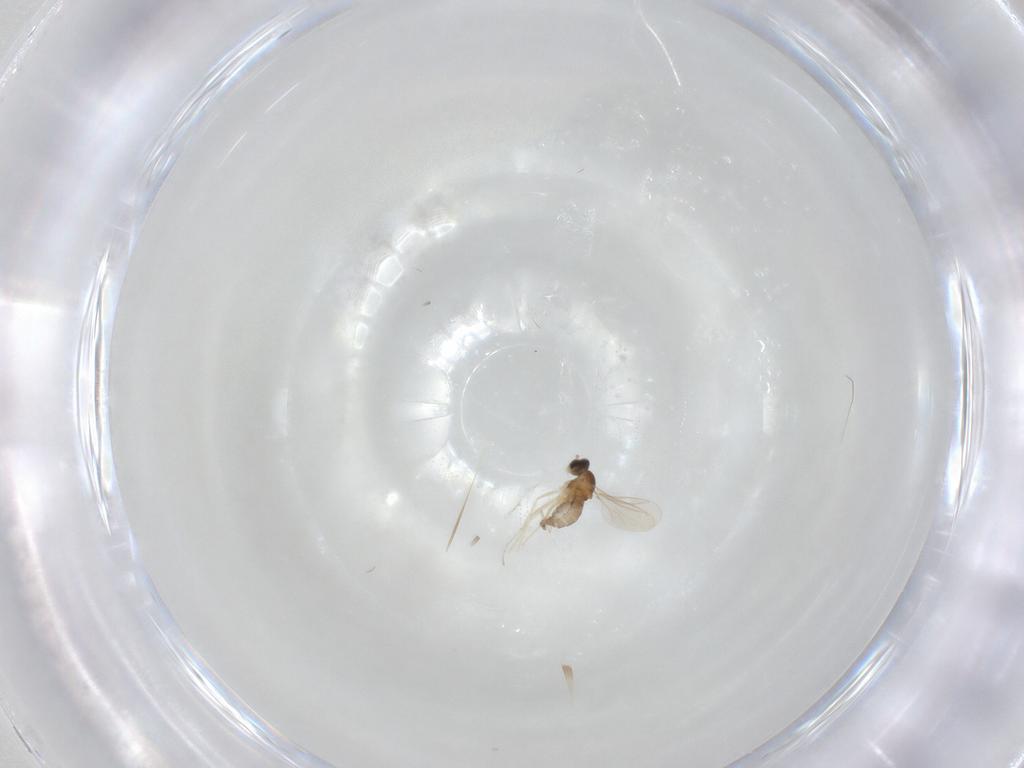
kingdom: Animalia
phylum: Arthropoda
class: Insecta
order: Diptera
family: Cecidomyiidae
